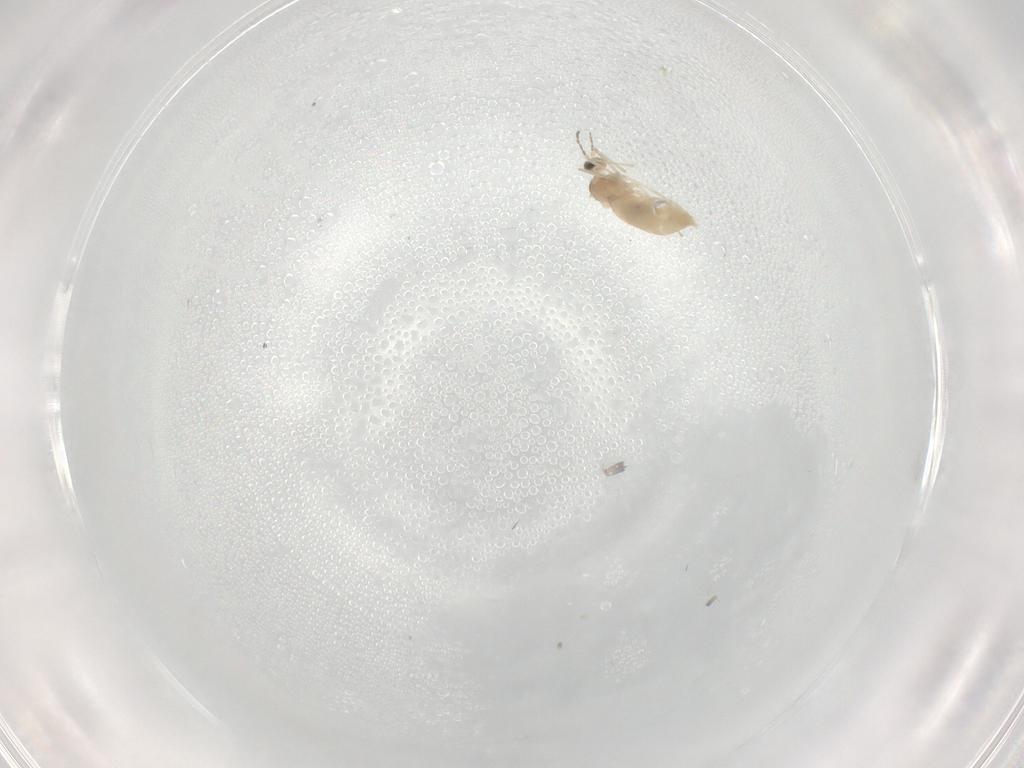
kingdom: Animalia
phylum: Arthropoda
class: Insecta
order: Diptera
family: Cecidomyiidae
